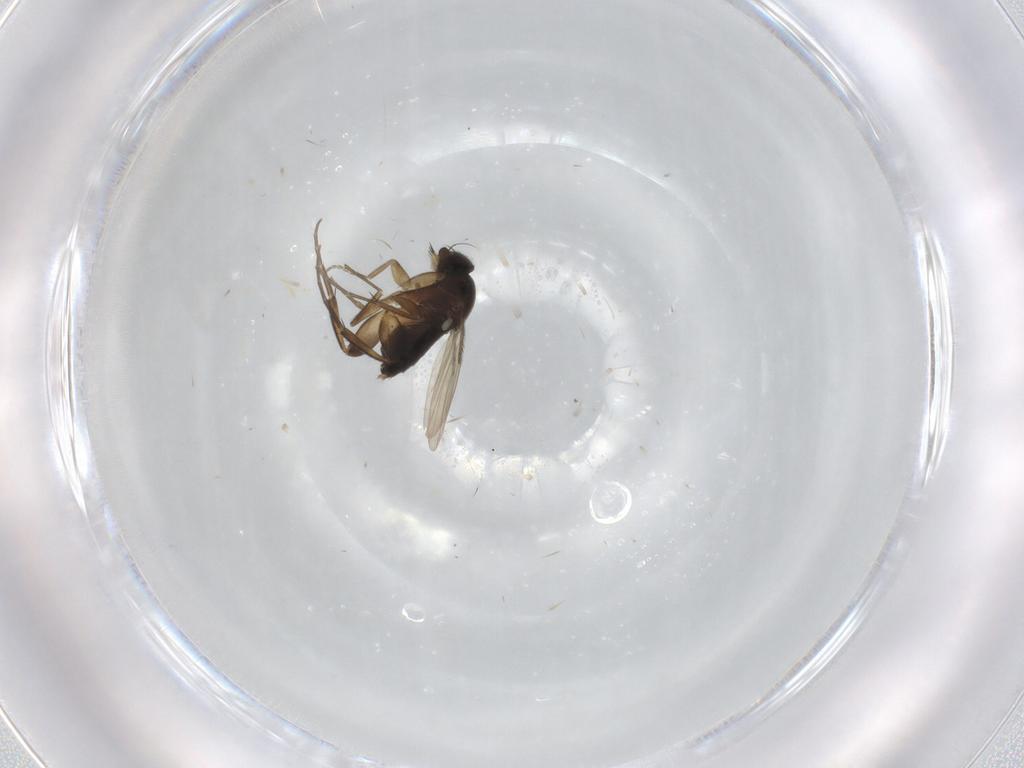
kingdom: Animalia
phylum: Arthropoda
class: Insecta
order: Diptera
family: Phoridae
